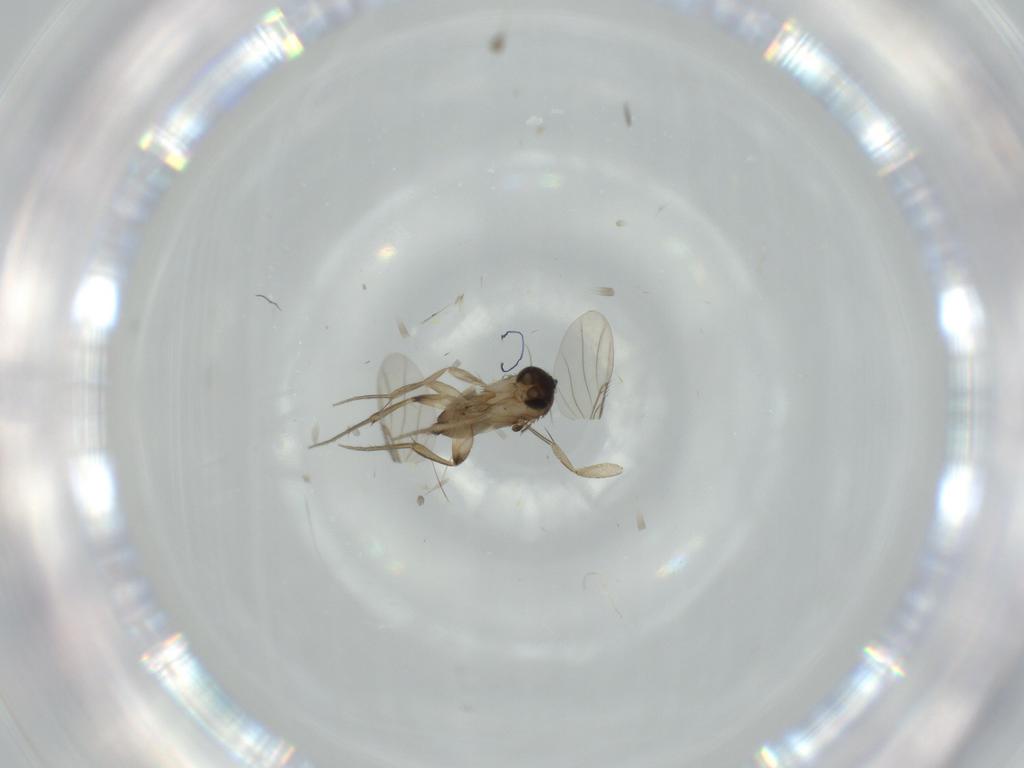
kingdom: Animalia
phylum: Arthropoda
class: Insecta
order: Diptera
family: Phoridae
